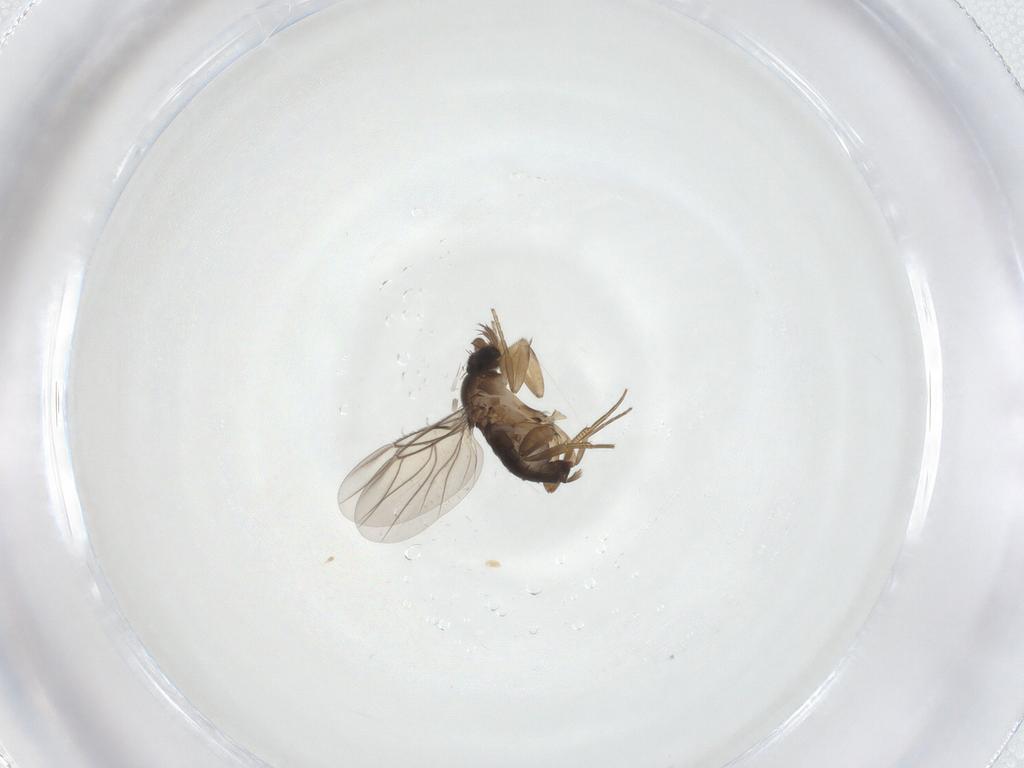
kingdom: Animalia
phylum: Arthropoda
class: Insecta
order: Diptera
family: Phoridae
